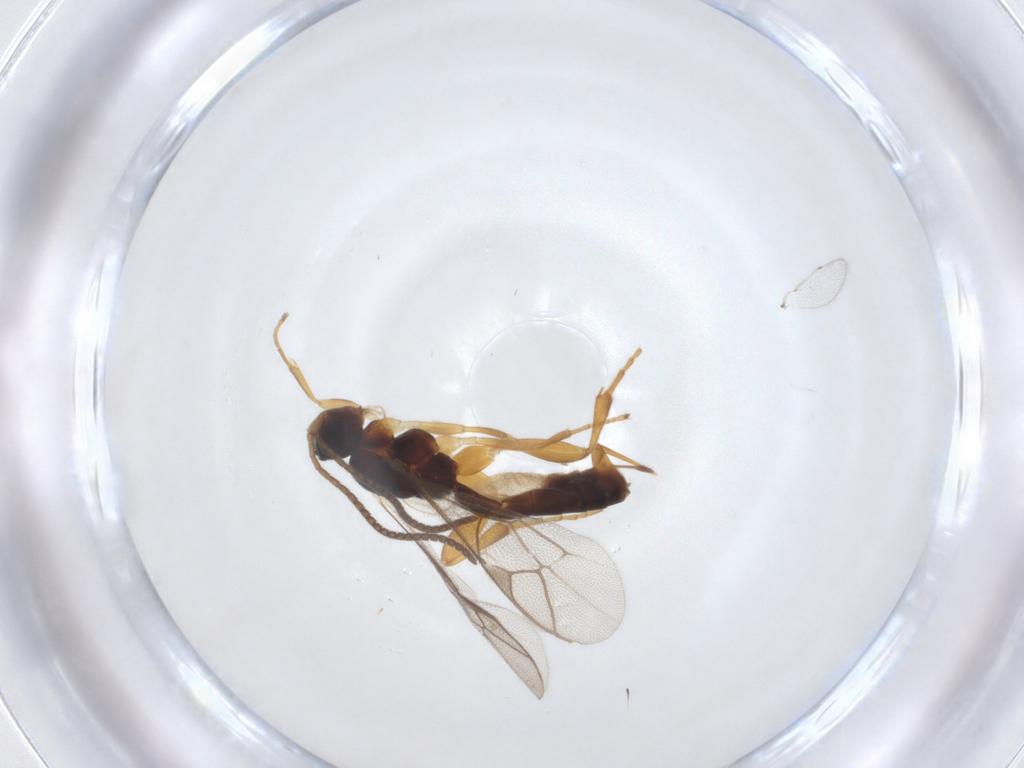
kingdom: Animalia
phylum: Arthropoda
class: Insecta
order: Hymenoptera
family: Ichneumonidae
